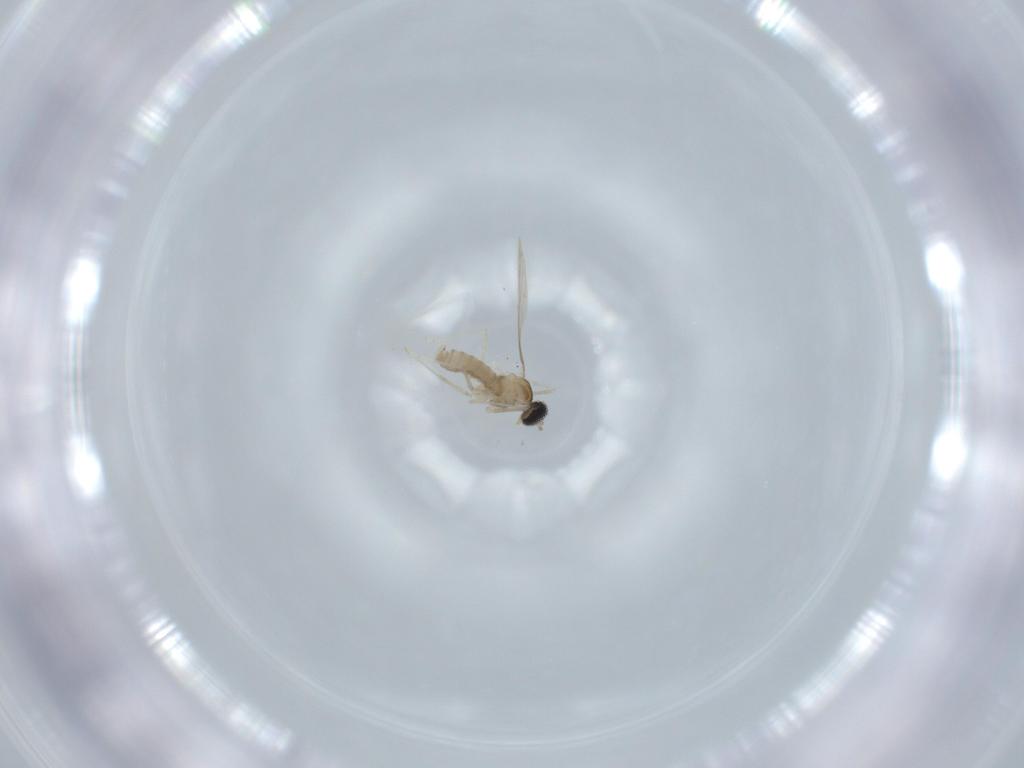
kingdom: Animalia
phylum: Arthropoda
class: Insecta
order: Diptera
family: Cecidomyiidae
